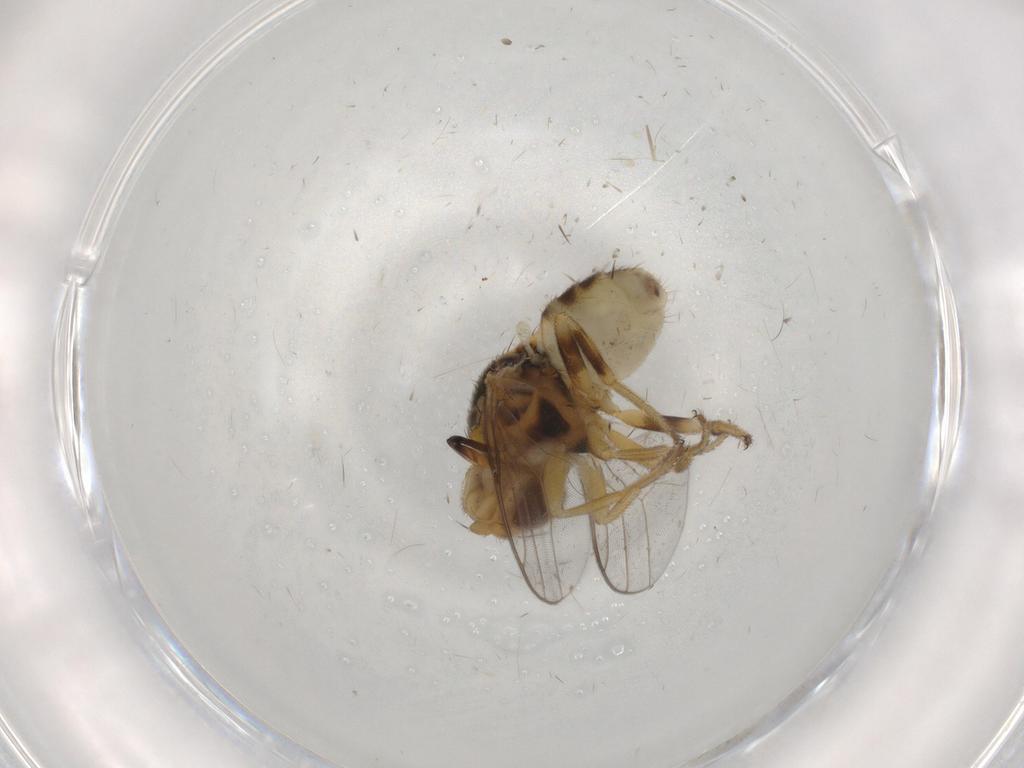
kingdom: Animalia
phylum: Arthropoda
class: Insecta
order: Diptera
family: Chloropidae
